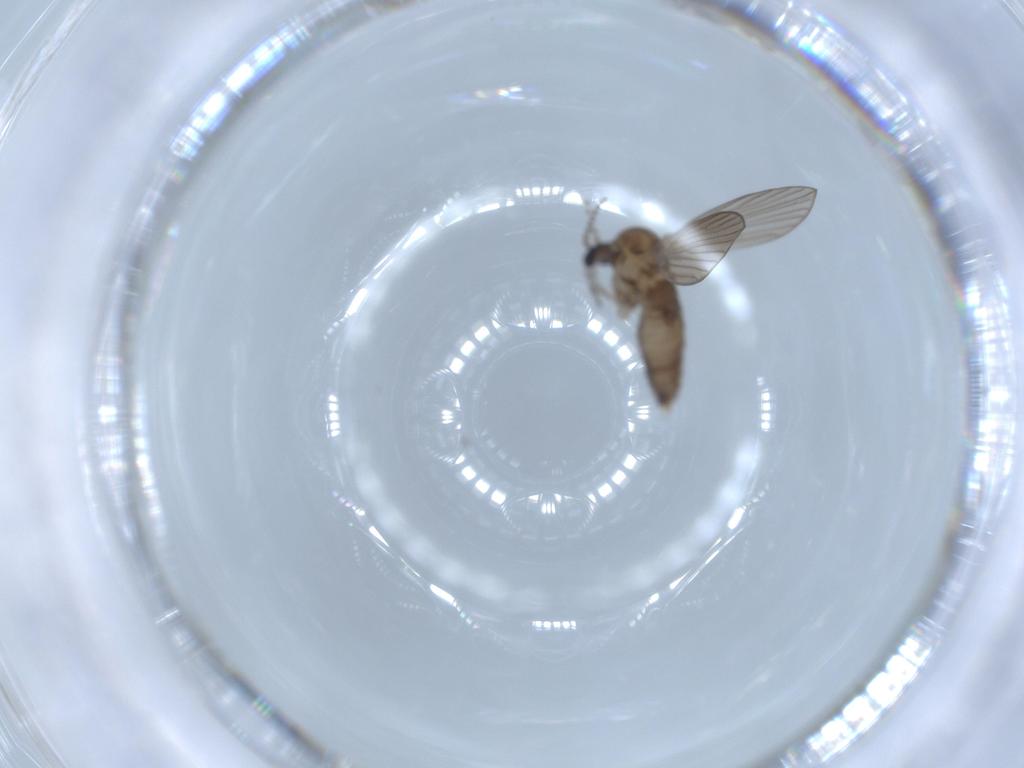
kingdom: Animalia
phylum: Arthropoda
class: Insecta
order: Diptera
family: Psychodidae
